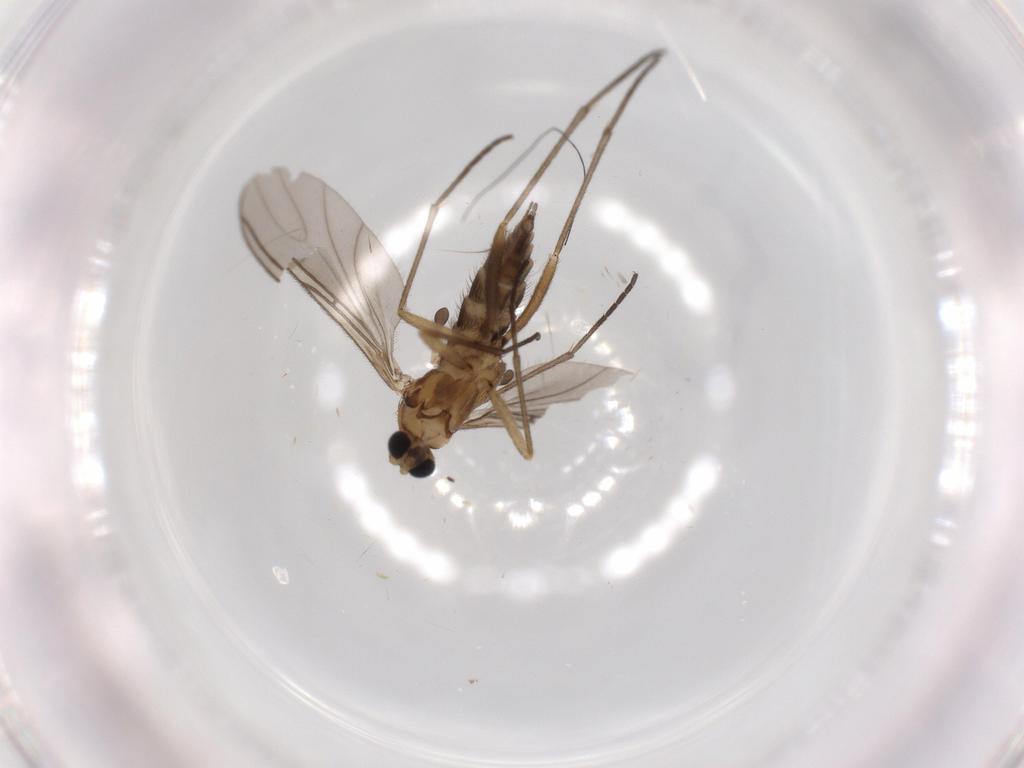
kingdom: Animalia
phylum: Arthropoda
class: Insecta
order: Diptera
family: Sciaridae
